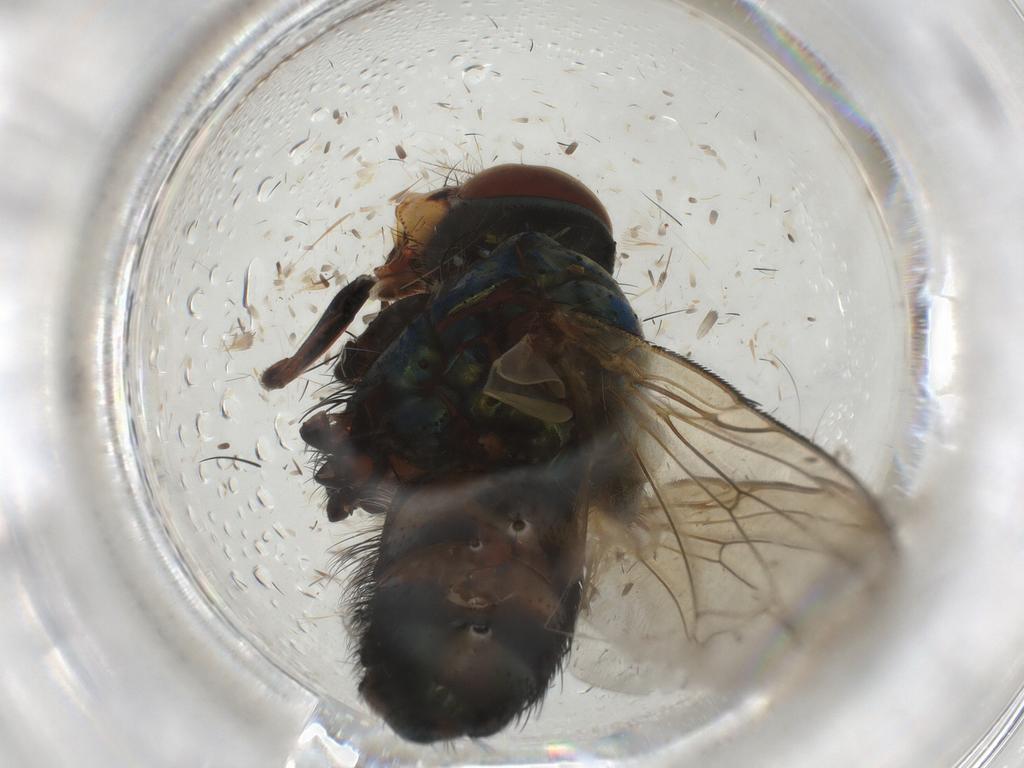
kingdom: Animalia
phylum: Arthropoda
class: Insecta
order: Diptera
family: Calliphoridae
